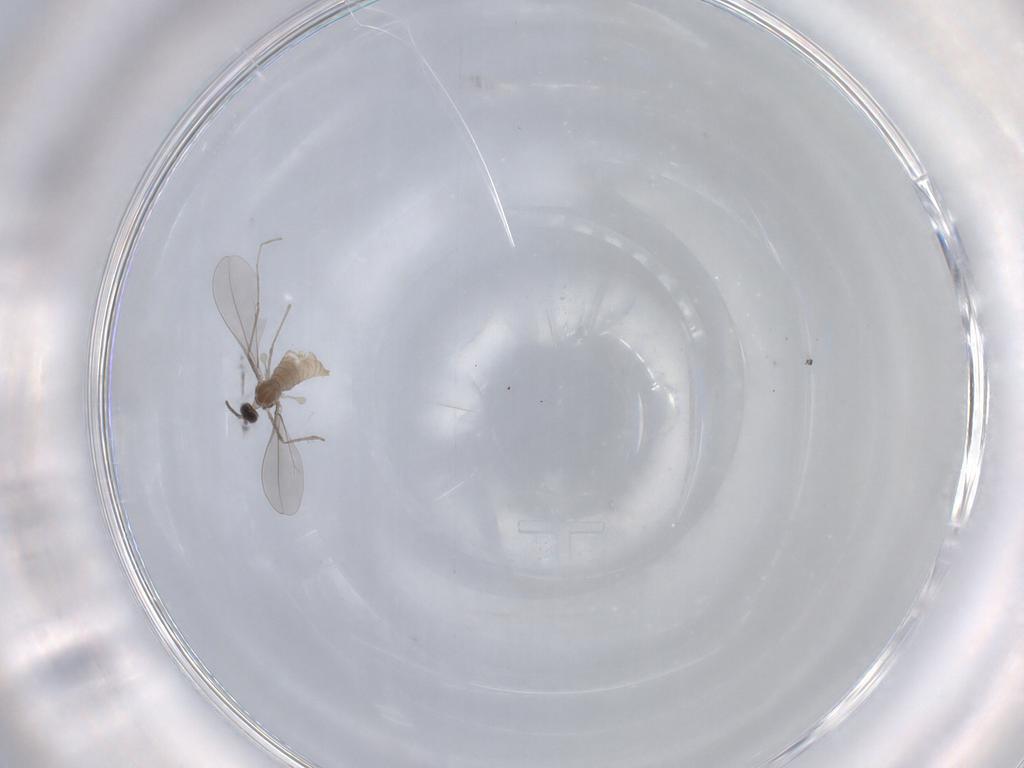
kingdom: Animalia
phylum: Arthropoda
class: Insecta
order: Diptera
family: Cecidomyiidae
